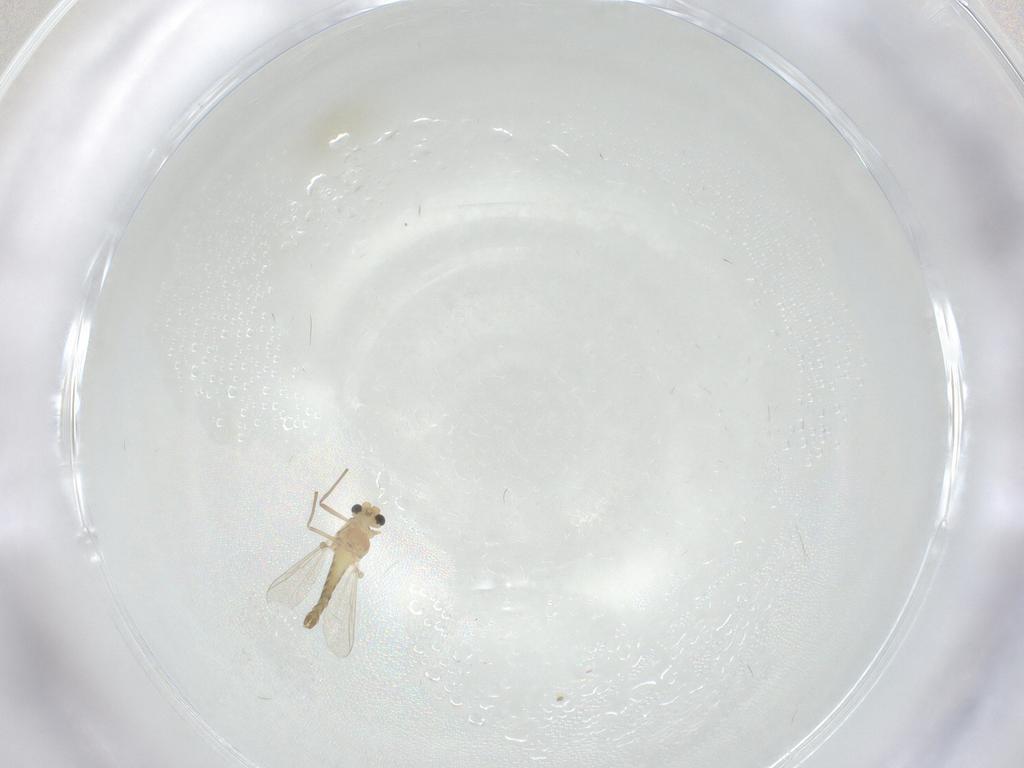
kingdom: Animalia
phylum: Arthropoda
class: Insecta
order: Diptera
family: Chironomidae
